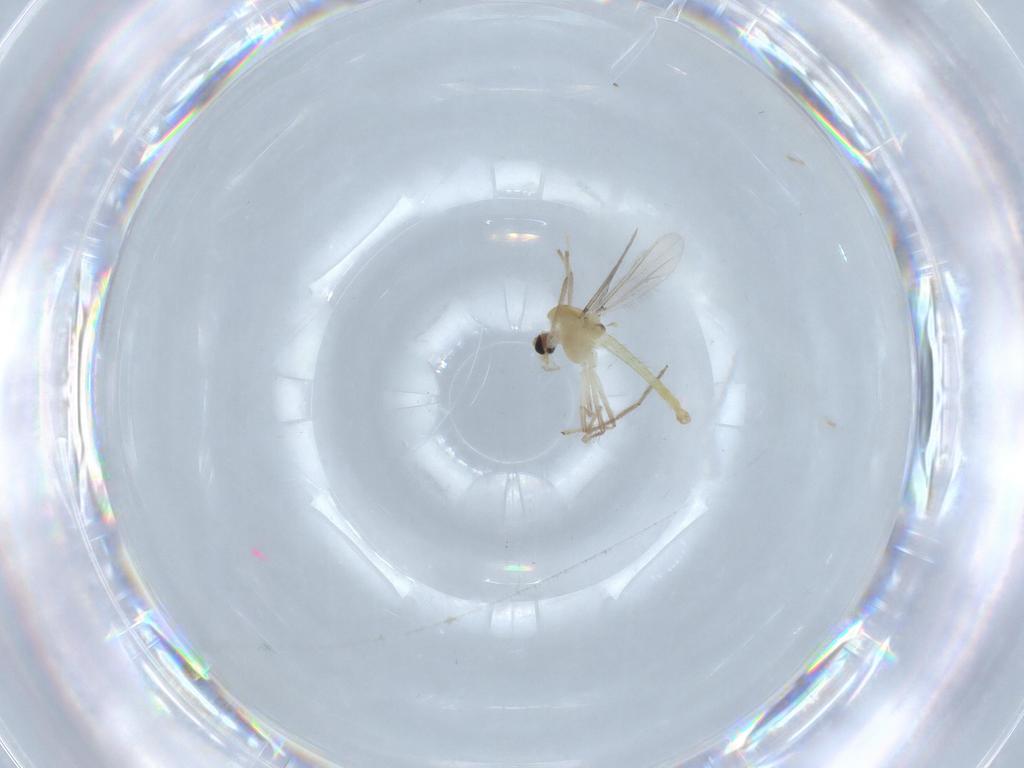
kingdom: Animalia
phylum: Arthropoda
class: Insecta
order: Diptera
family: Chironomidae
